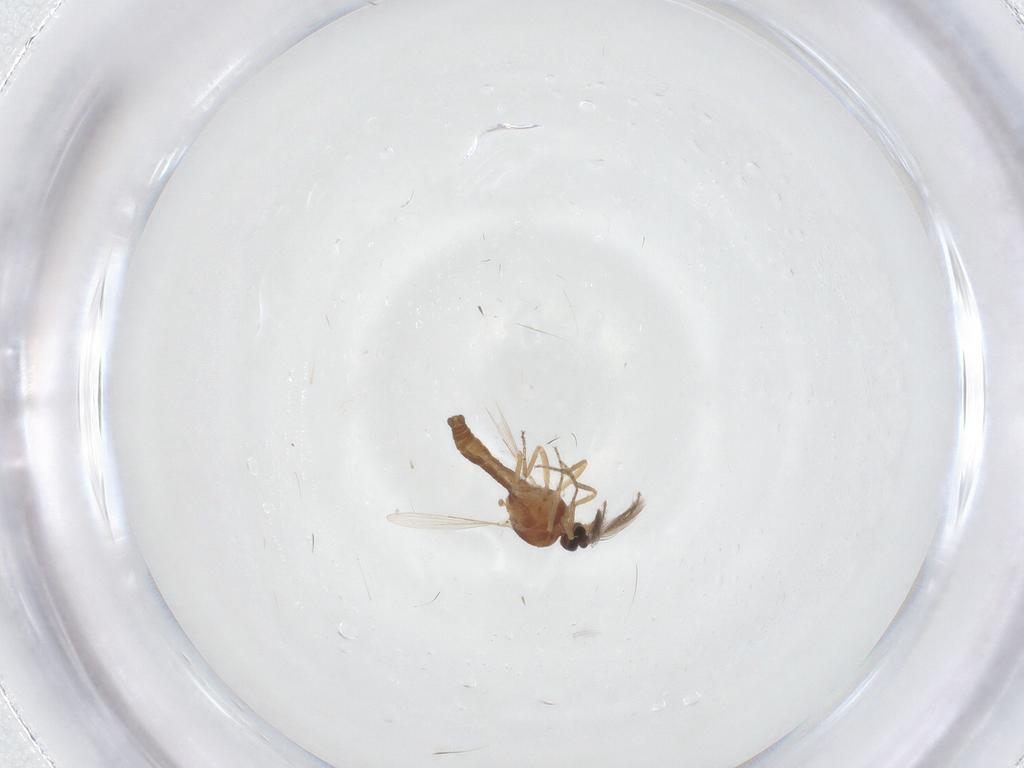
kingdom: Animalia
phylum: Arthropoda
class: Insecta
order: Diptera
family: Ceratopogonidae
